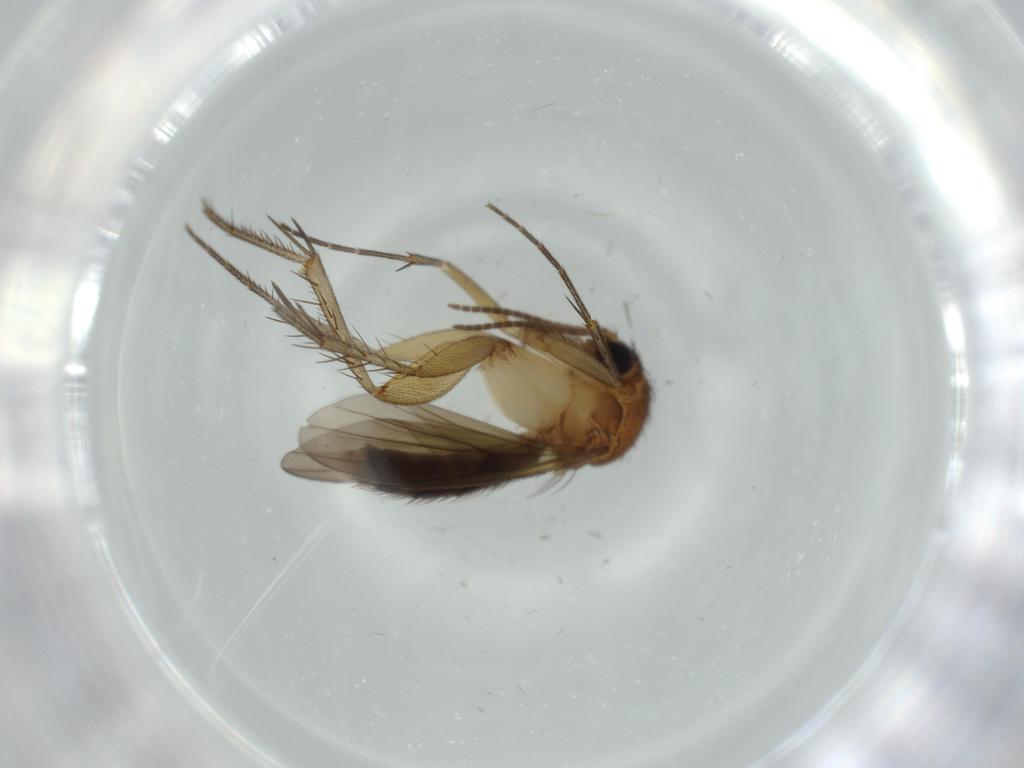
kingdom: Animalia
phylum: Arthropoda
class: Insecta
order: Diptera
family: Mycetophilidae
